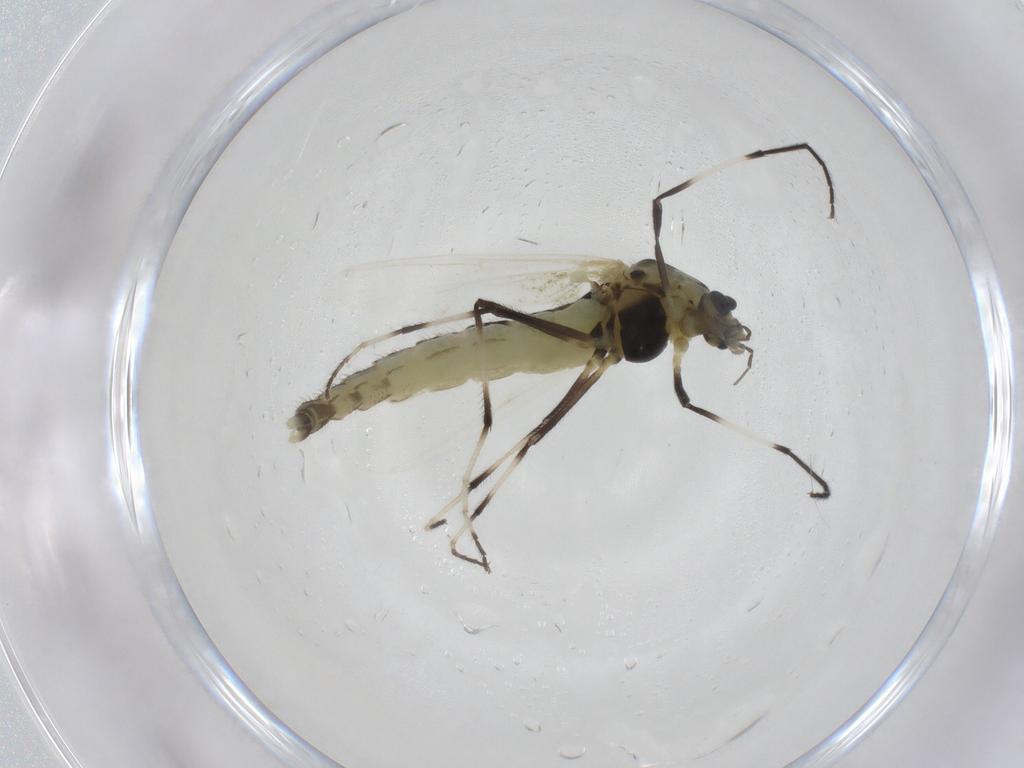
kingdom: Animalia
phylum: Arthropoda
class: Insecta
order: Diptera
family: Chironomidae
